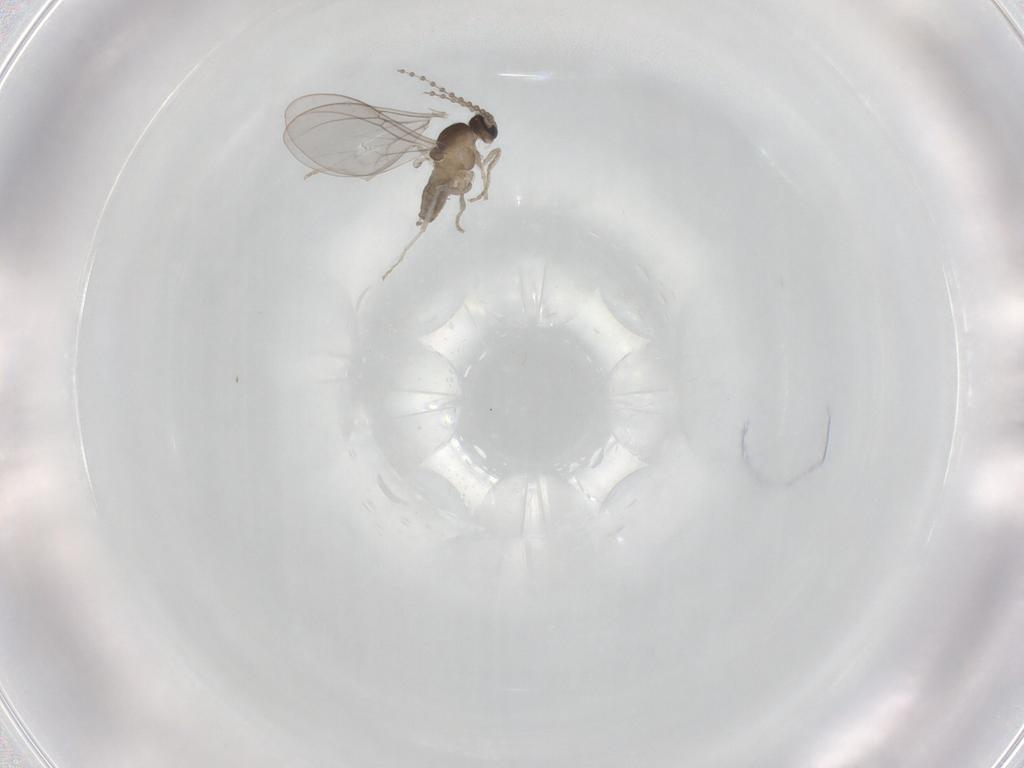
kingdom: Animalia
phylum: Arthropoda
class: Insecta
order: Diptera
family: Cecidomyiidae
